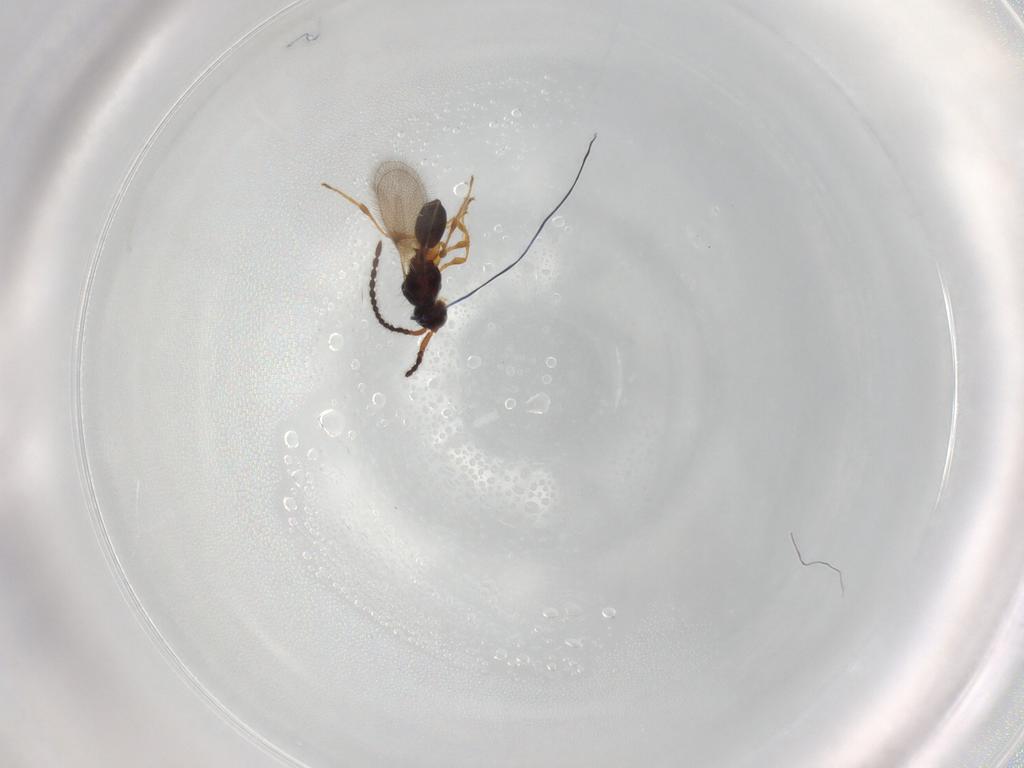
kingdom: Animalia
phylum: Arthropoda
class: Insecta
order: Hymenoptera
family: Diapriidae
